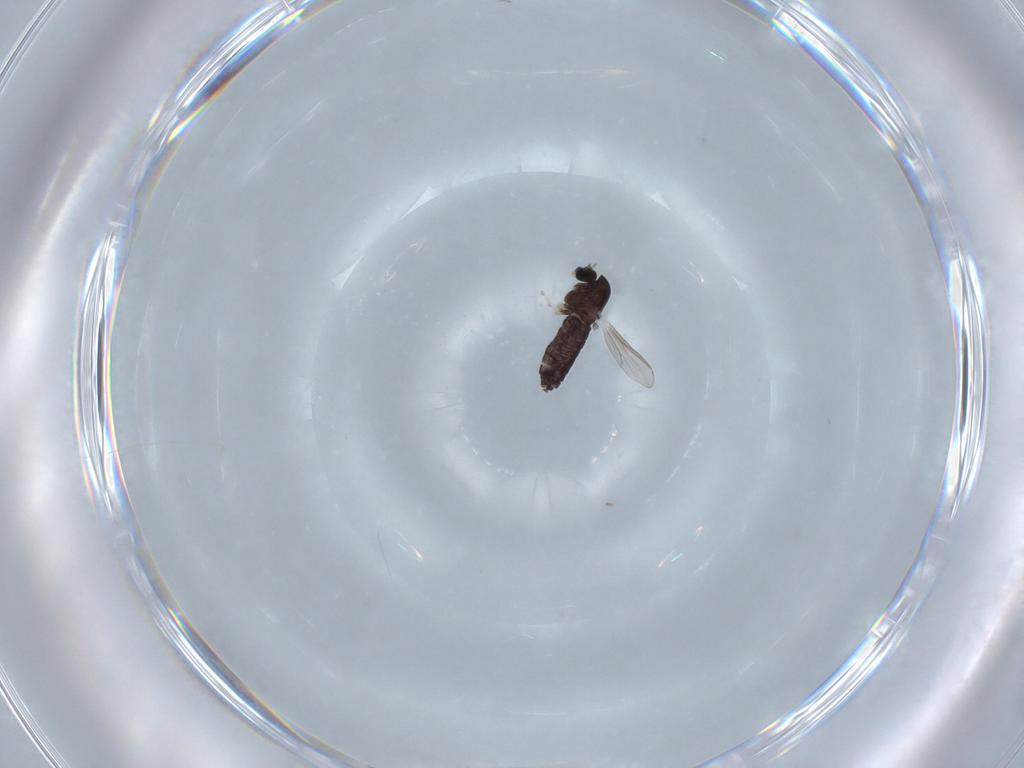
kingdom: Animalia
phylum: Arthropoda
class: Insecta
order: Diptera
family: Chironomidae
